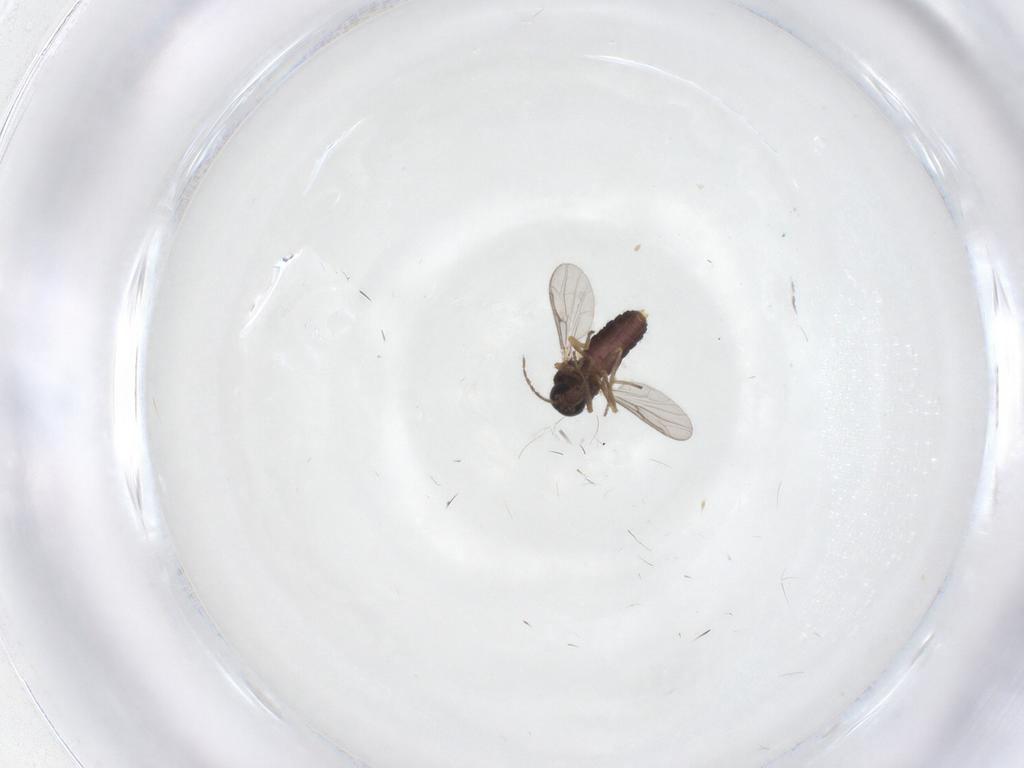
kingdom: Animalia
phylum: Arthropoda
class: Insecta
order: Diptera
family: Ceratopogonidae
